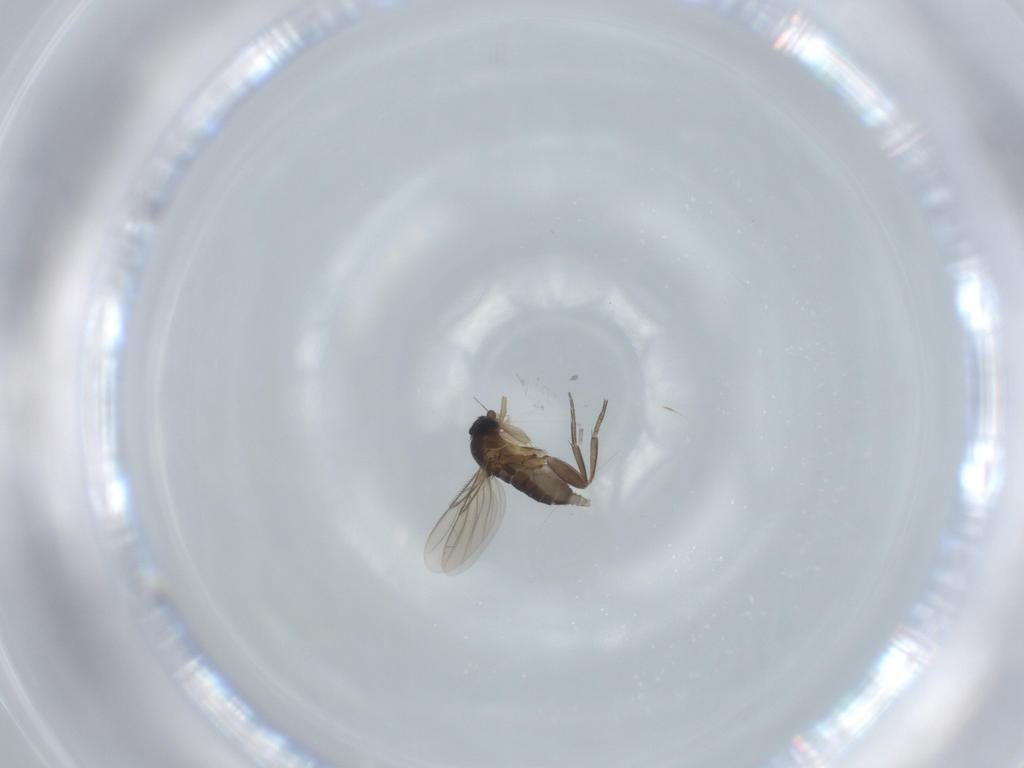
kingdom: Animalia
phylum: Arthropoda
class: Insecta
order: Diptera
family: Phoridae
